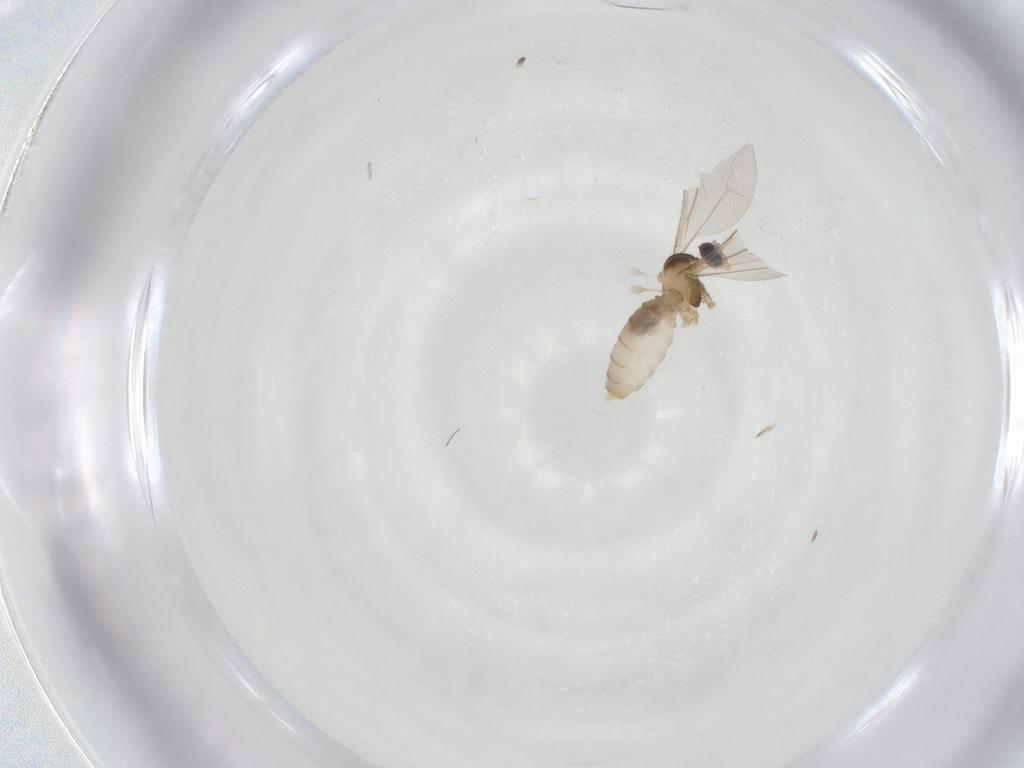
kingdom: Animalia
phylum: Arthropoda
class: Insecta
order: Diptera
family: Cecidomyiidae
